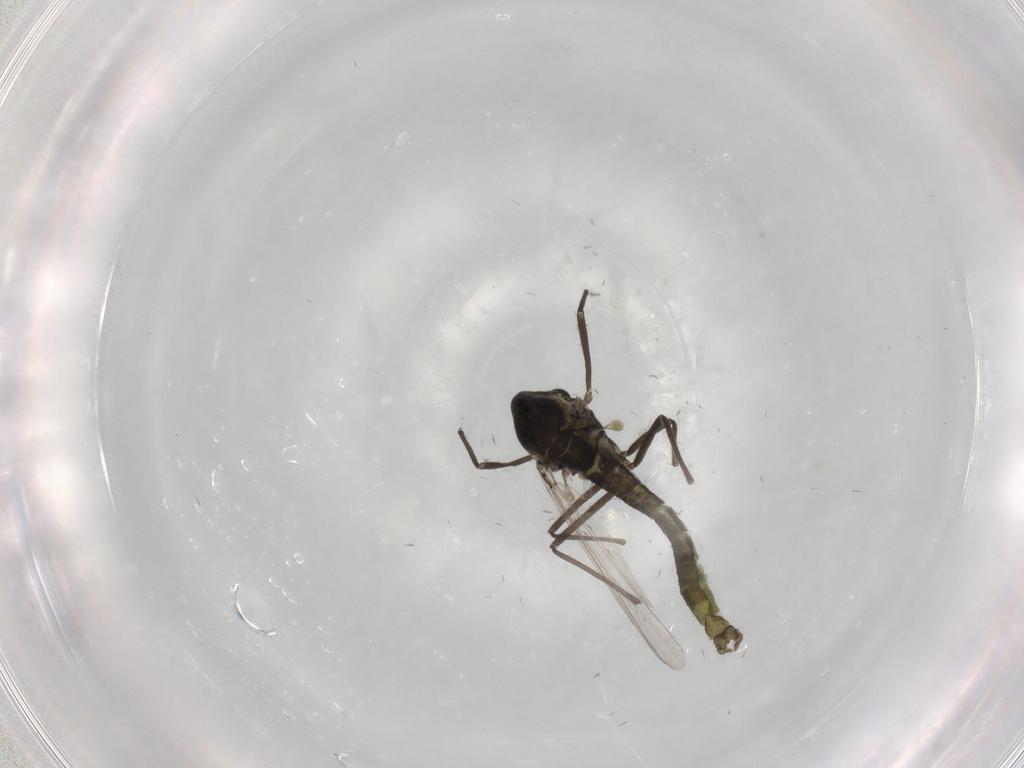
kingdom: Animalia
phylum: Arthropoda
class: Insecta
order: Diptera
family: Chironomidae
